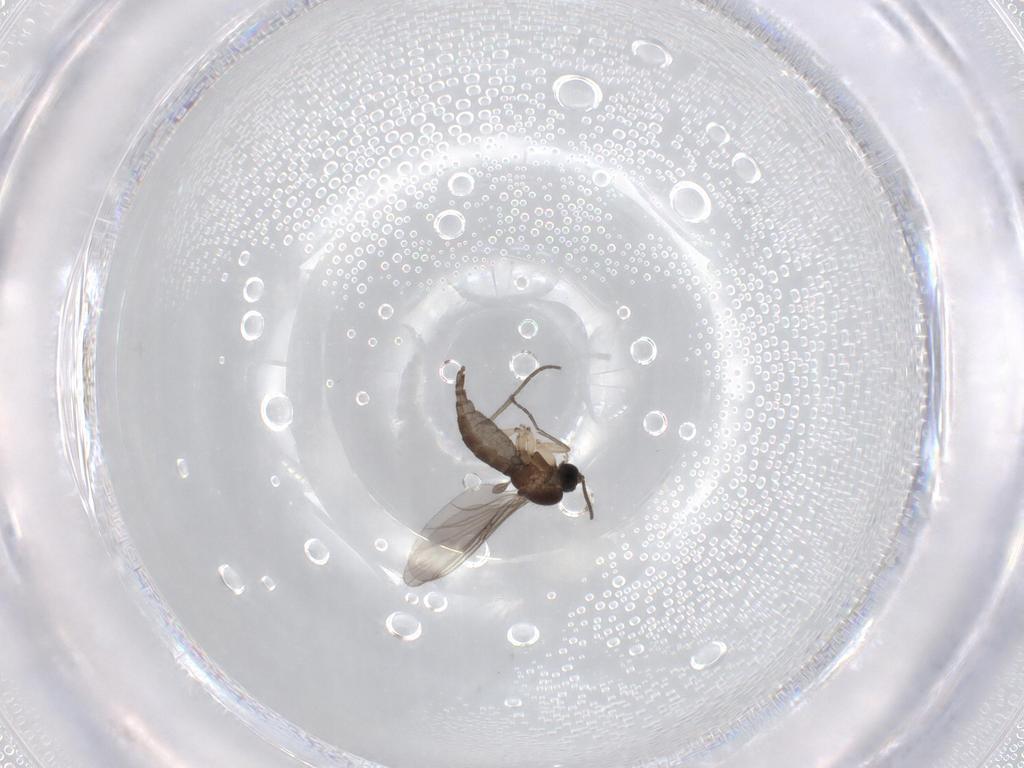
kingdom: Animalia
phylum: Arthropoda
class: Insecta
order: Diptera
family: Sciaridae
